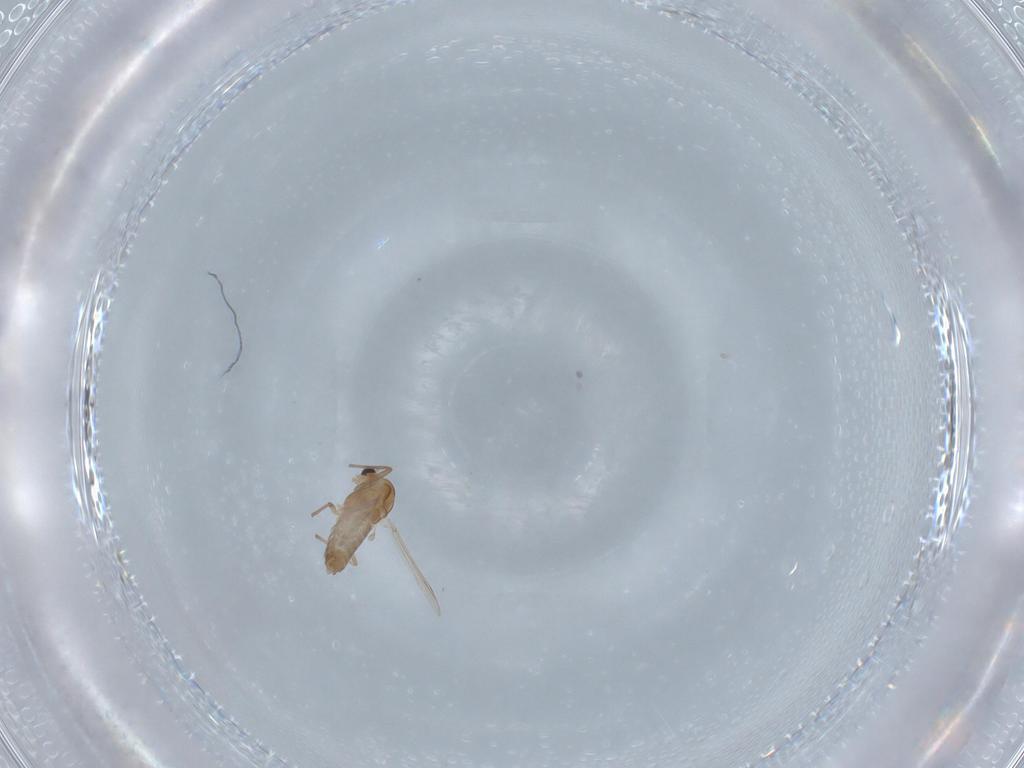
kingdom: Animalia
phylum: Arthropoda
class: Insecta
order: Diptera
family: Chironomidae
